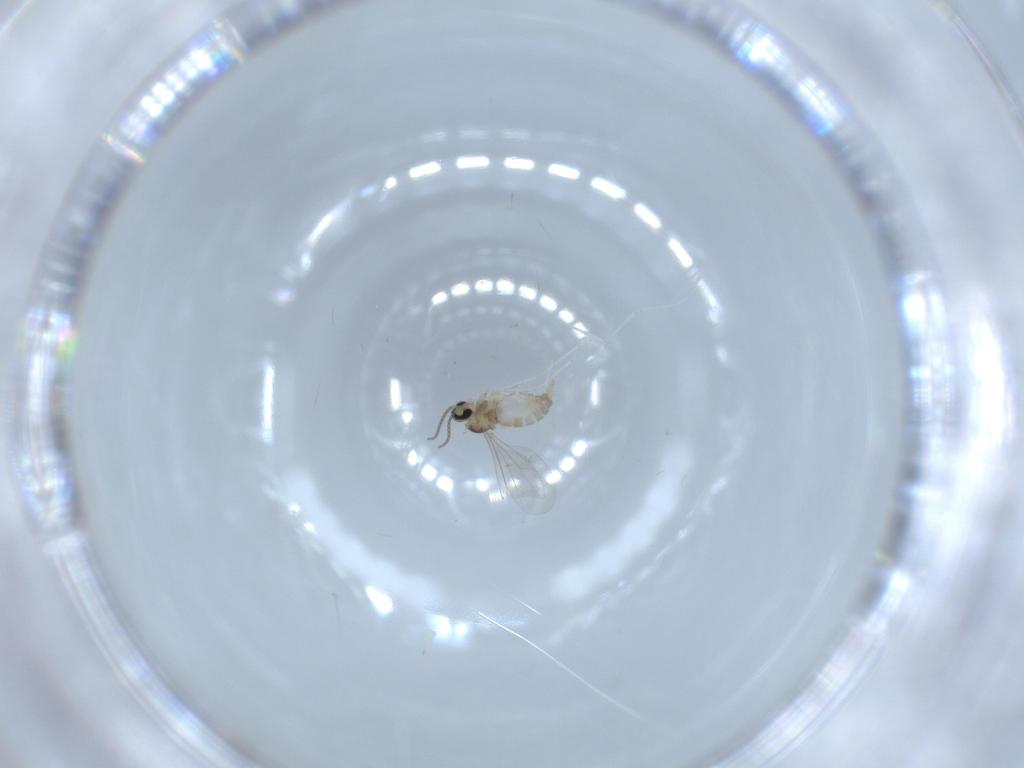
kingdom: Animalia
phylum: Arthropoda
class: Insecta
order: Diptera
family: Cecidomyiidae
